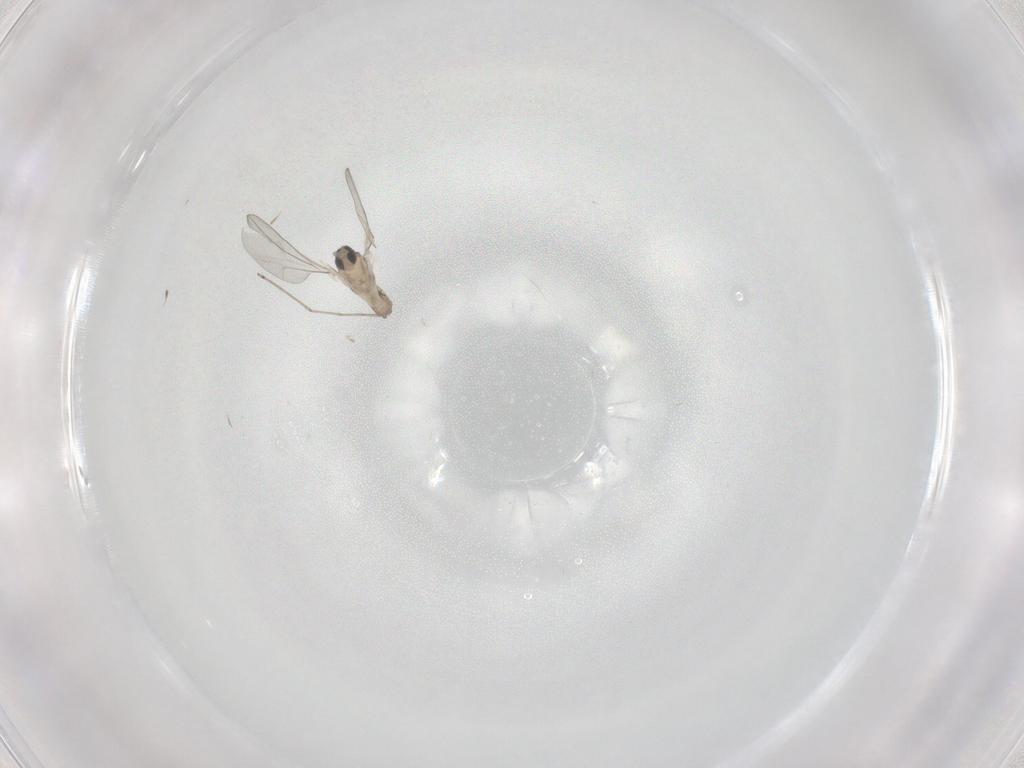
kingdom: Animalia
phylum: Arthropoda
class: Insecta
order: Diptera
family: Cecidomyiidae
